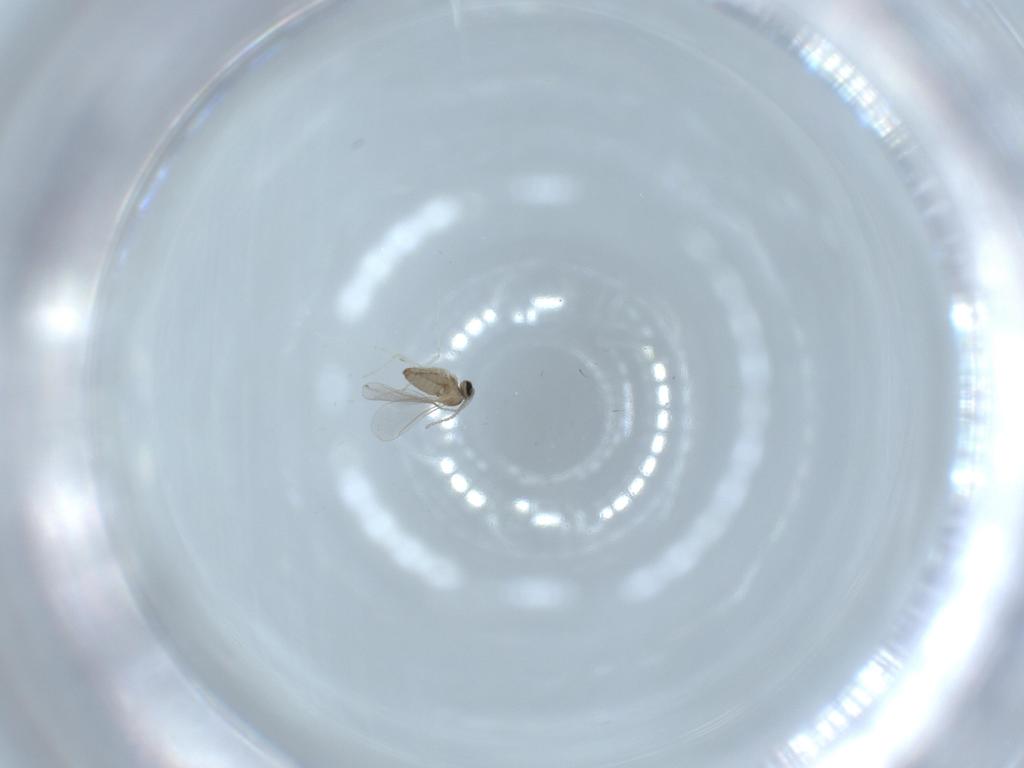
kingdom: Animalia
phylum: Arthropoda
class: Insecta
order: Diptera
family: Cecidomyiidae
